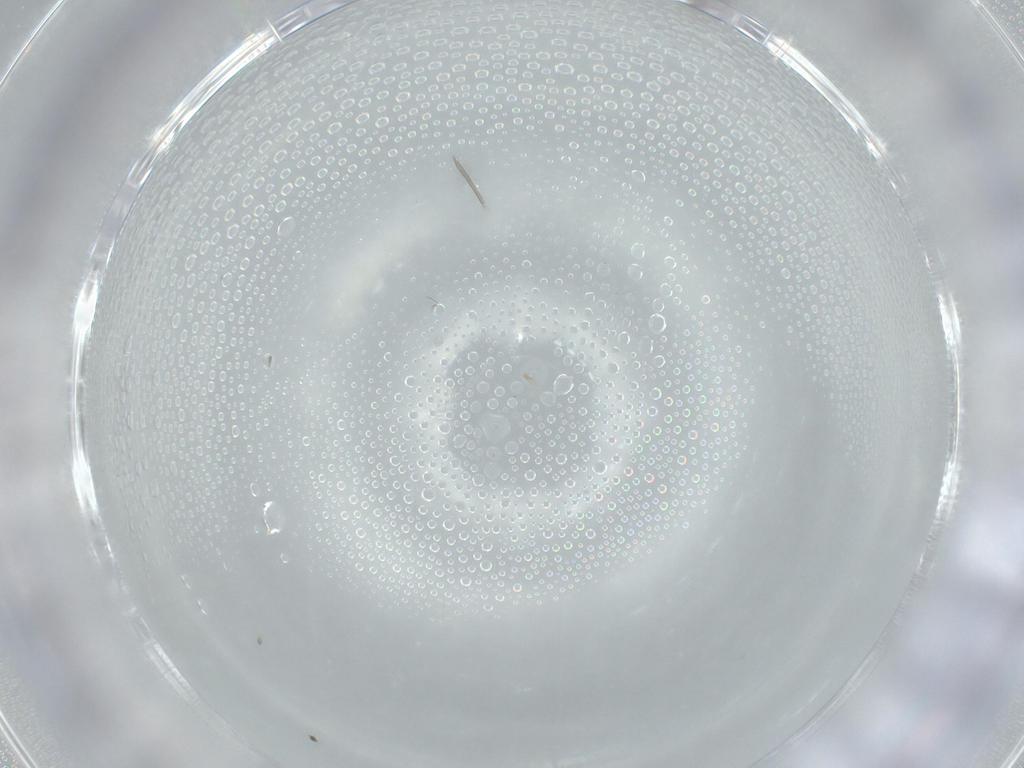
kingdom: Animalia
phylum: Arthropoda
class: Insecta
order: Hymenoptera
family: Mymaridae
